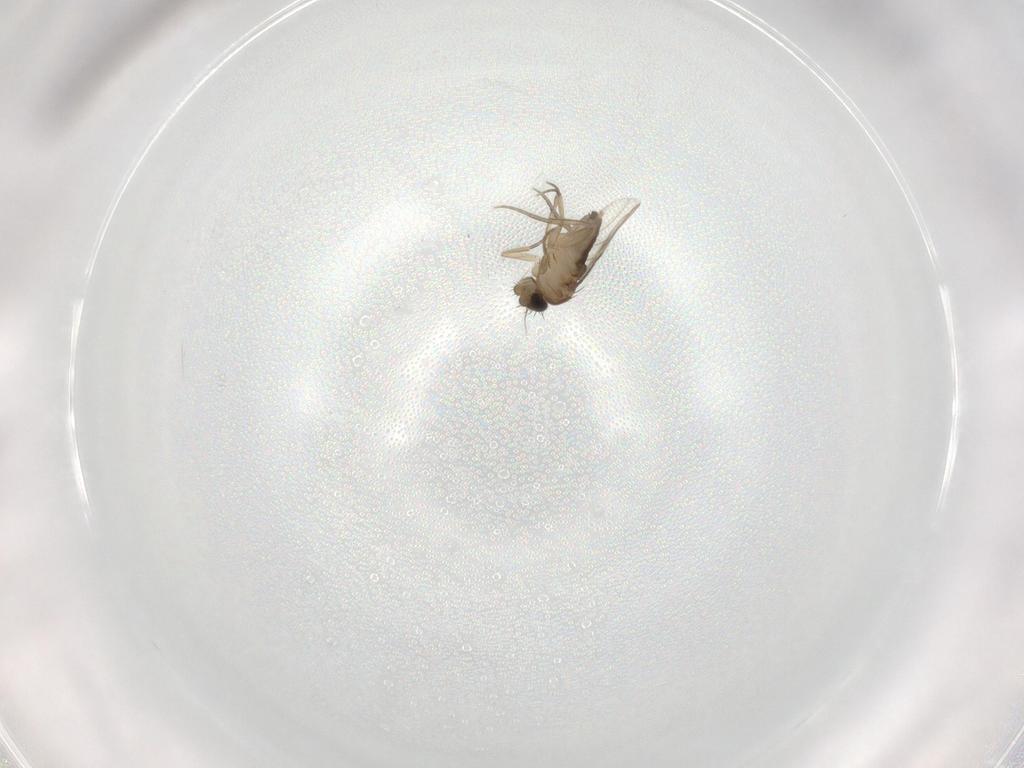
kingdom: Animalia
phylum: Arthropoda
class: Insecta
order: Diptera
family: Phoridae
